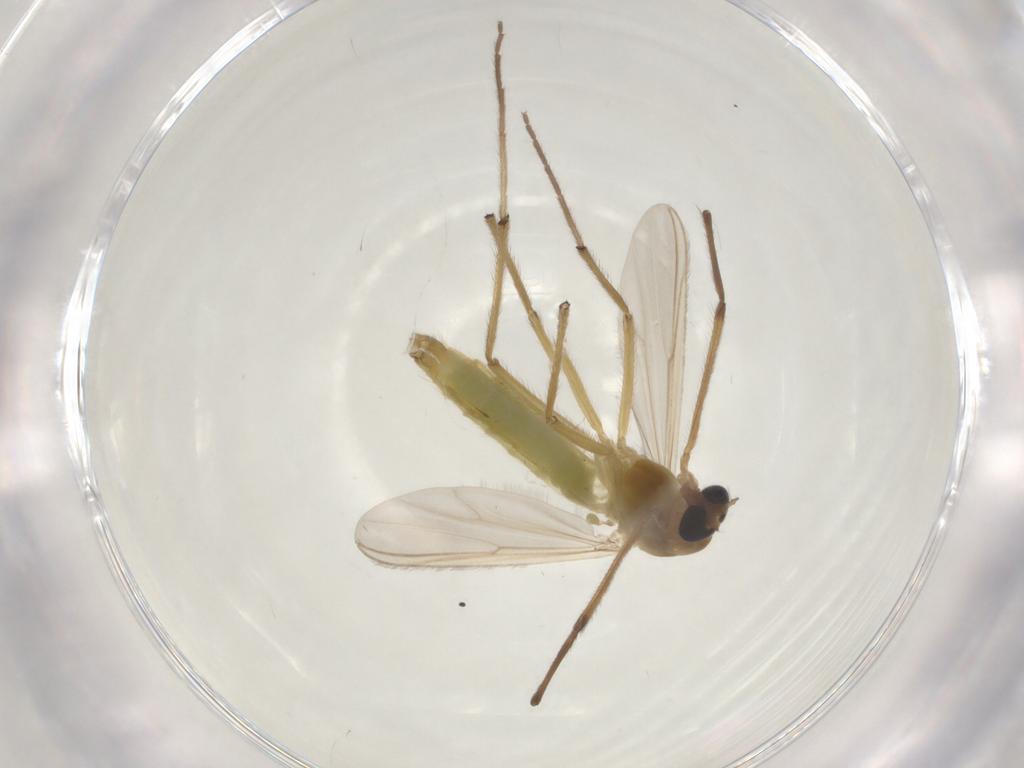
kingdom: Animalia
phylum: Arthropoda
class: Insecta
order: Diptera
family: Chironomidae
